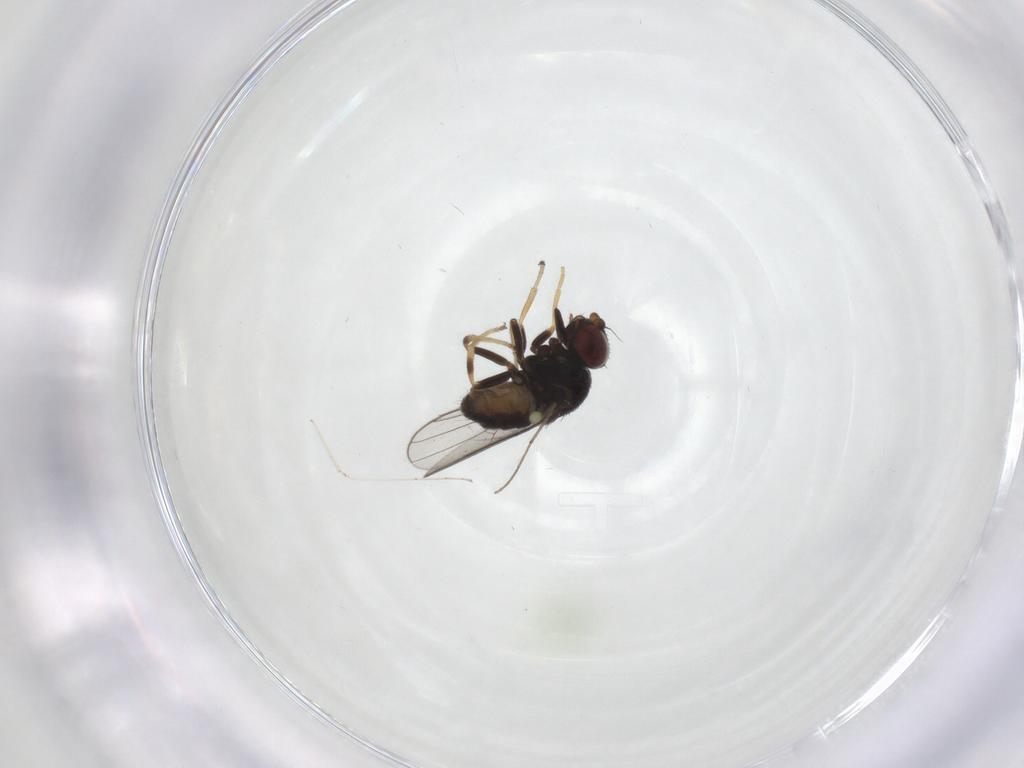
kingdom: Animalia
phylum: Arthropoda
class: Insecta
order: Diptera
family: Chloropidae
